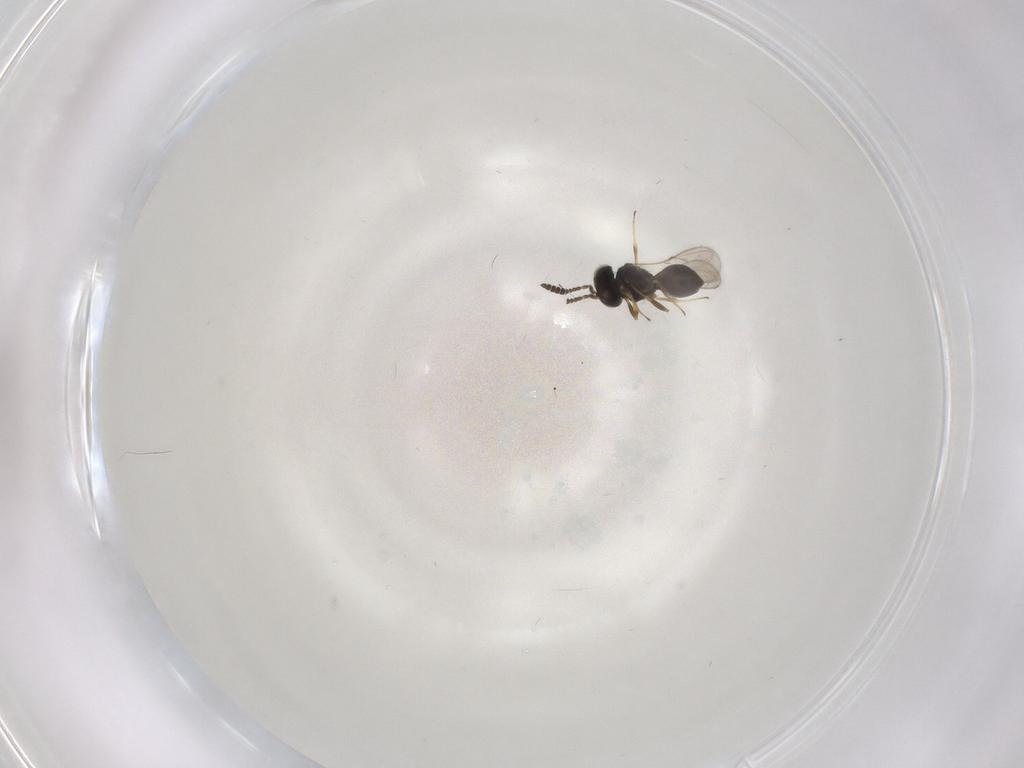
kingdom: Animalia
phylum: Arthropoda
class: Insecta
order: Hymenoptera
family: Scelionidae
